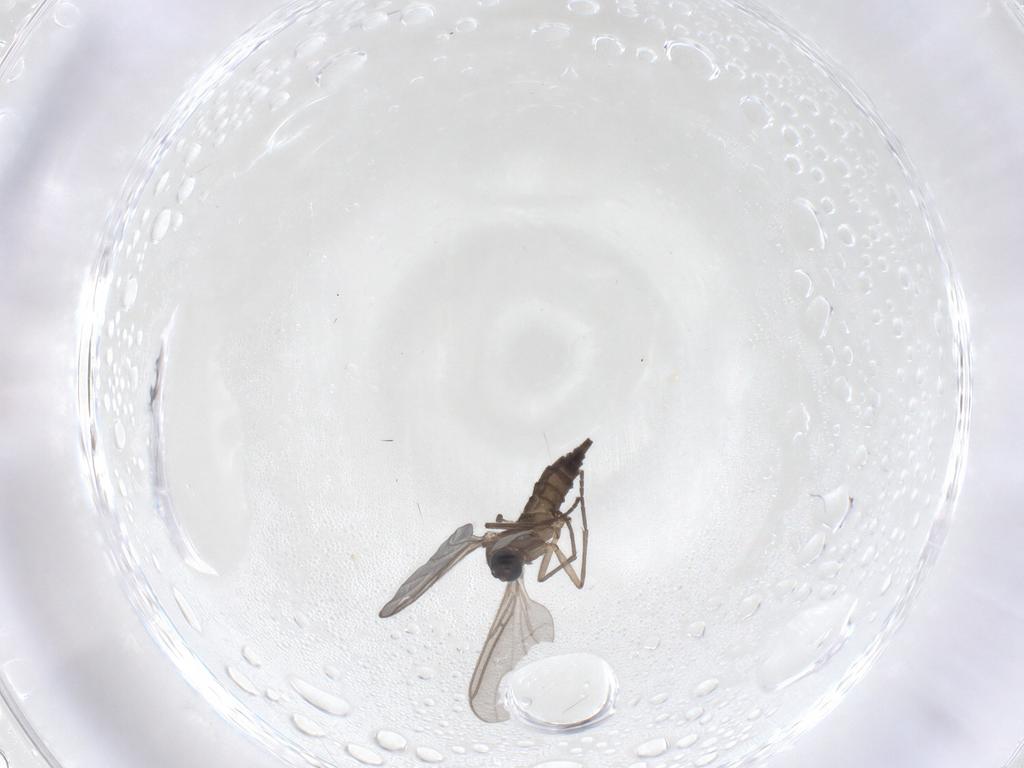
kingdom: Animalia
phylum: Arthropoda
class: Insecta
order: Diptera
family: Sciaridae
